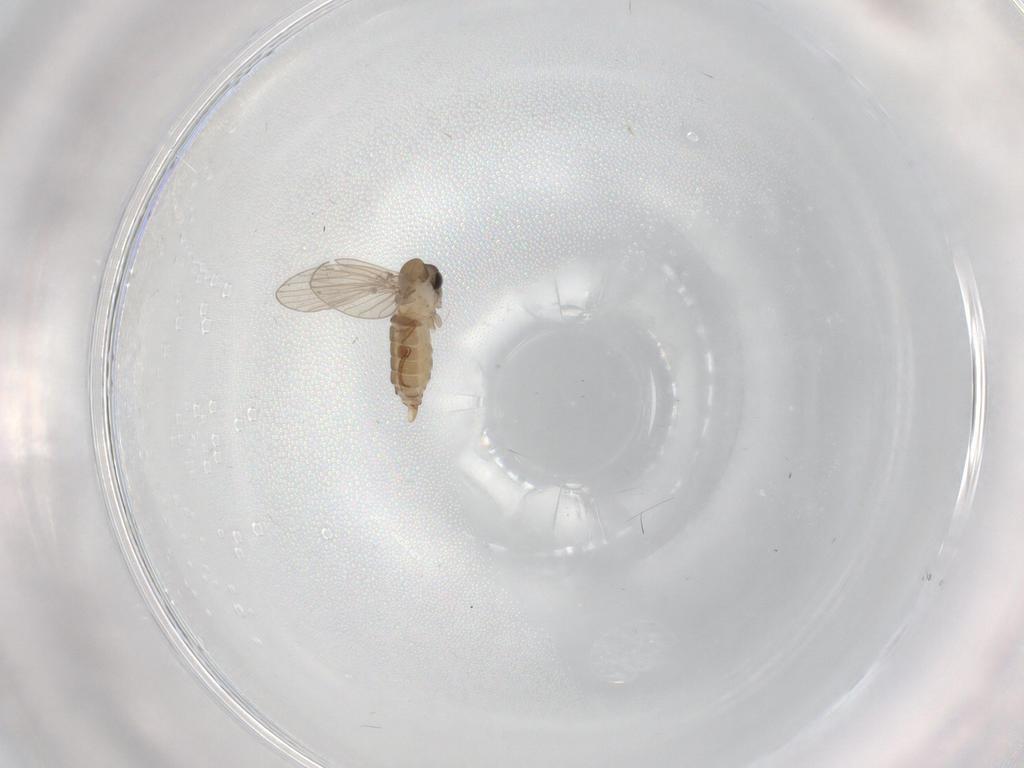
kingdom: Animalia
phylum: Arthropoda
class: Insecta
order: Diptera
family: Psychodidae
